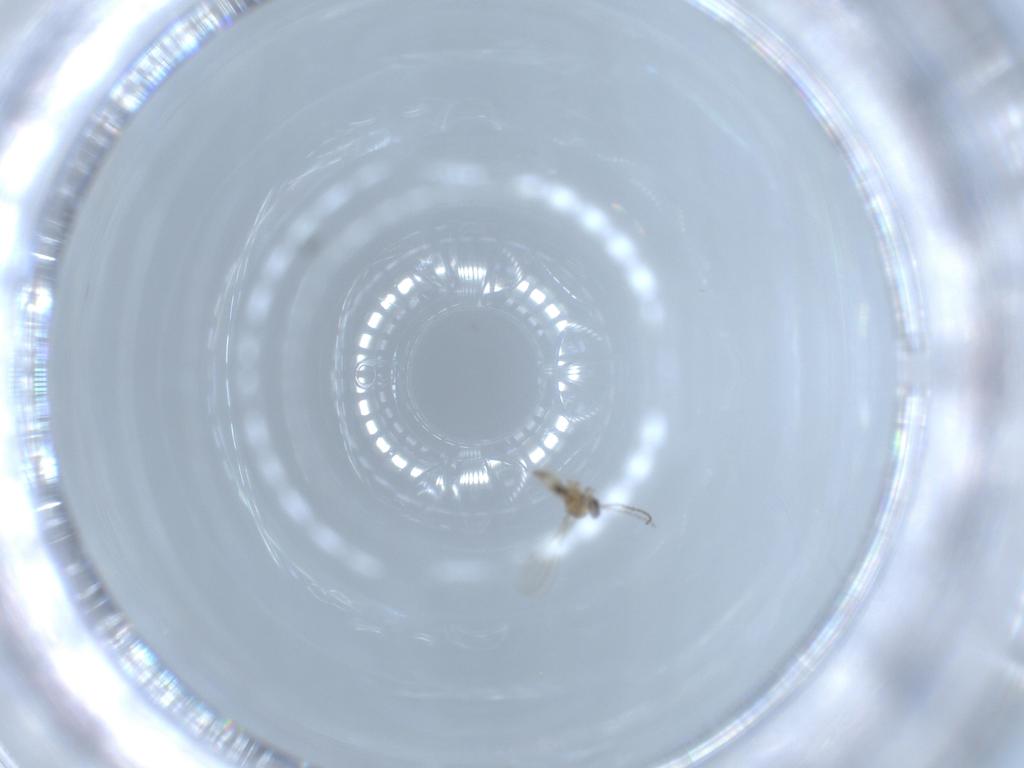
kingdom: Animalia
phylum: Arthropoda
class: Insecta
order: Diptera
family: Cecidomyiidae
